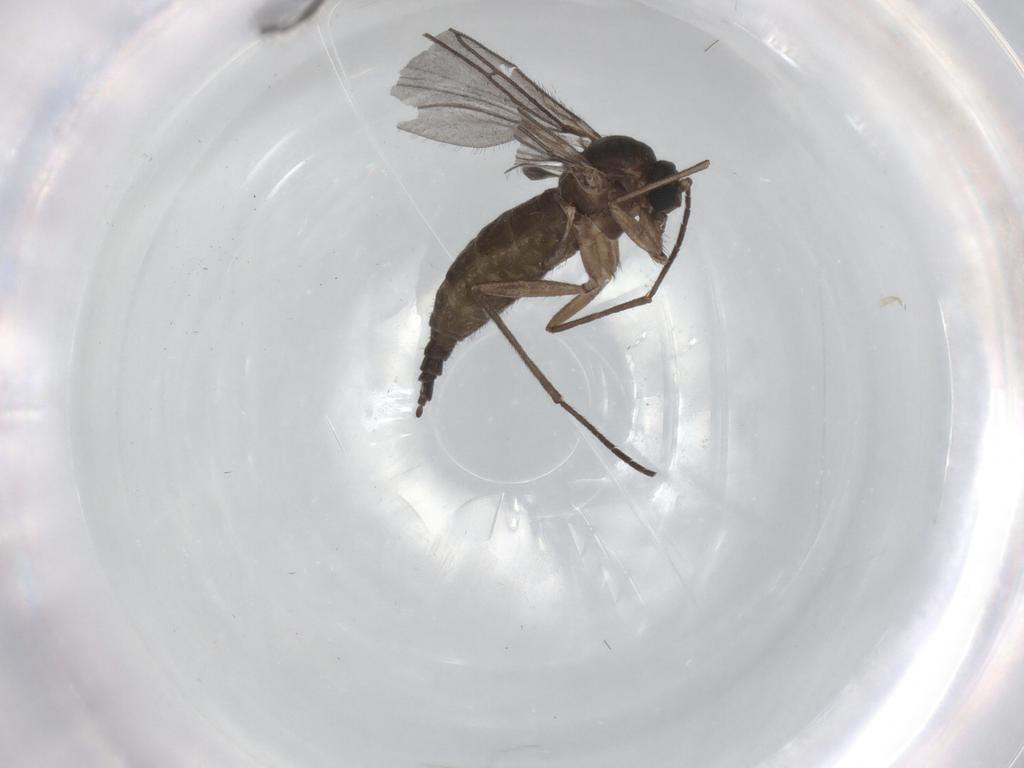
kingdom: Animalia
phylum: Arthropoda
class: Insecta
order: Diptera
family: Stratiomyidae
